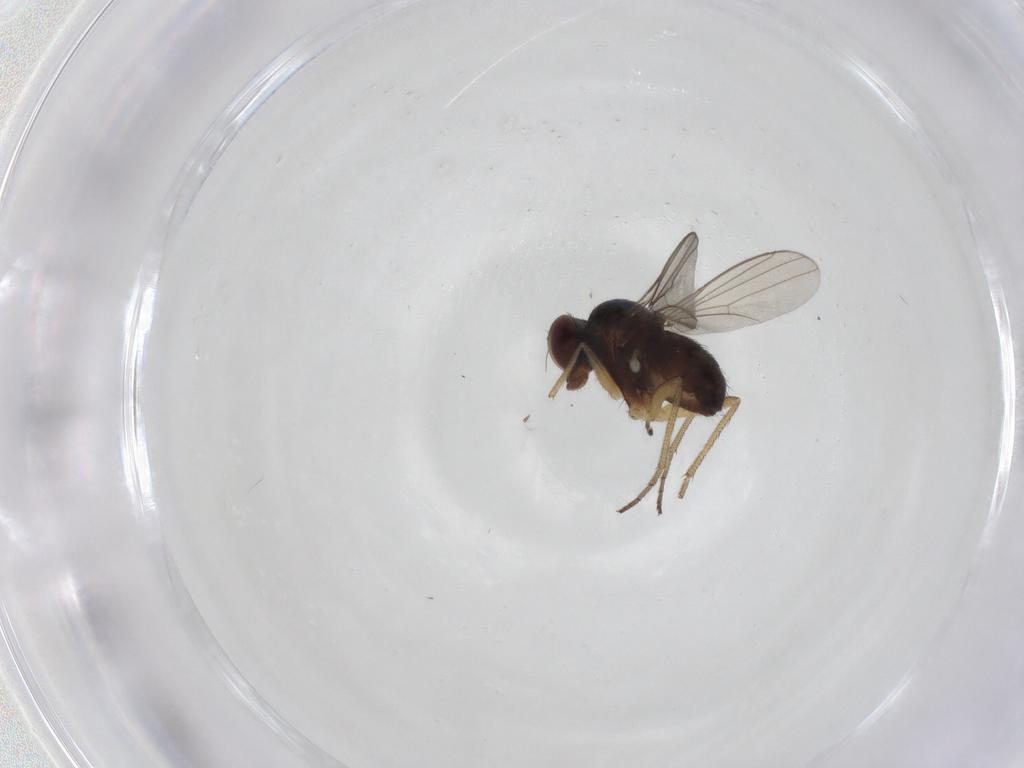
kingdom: Animalia
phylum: Arthropoda
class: Insecta
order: Diptera
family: Dolichopodidae
